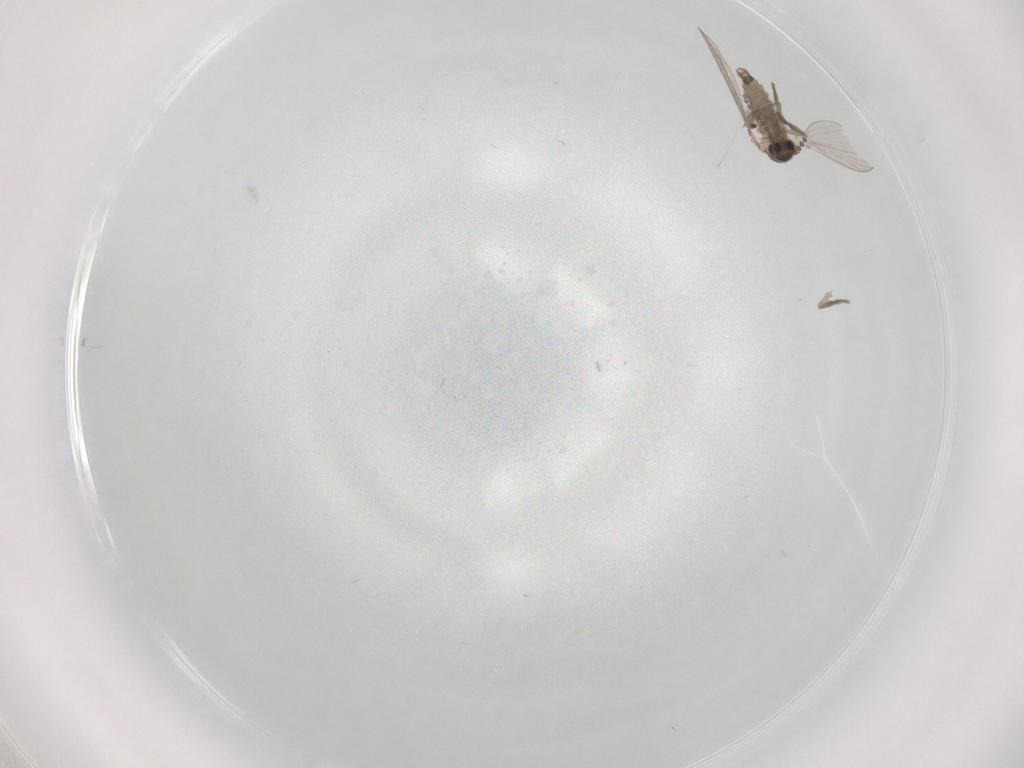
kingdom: Animalia
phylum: Arthropoda
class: Insecta
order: Diptera
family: Psychodidae
